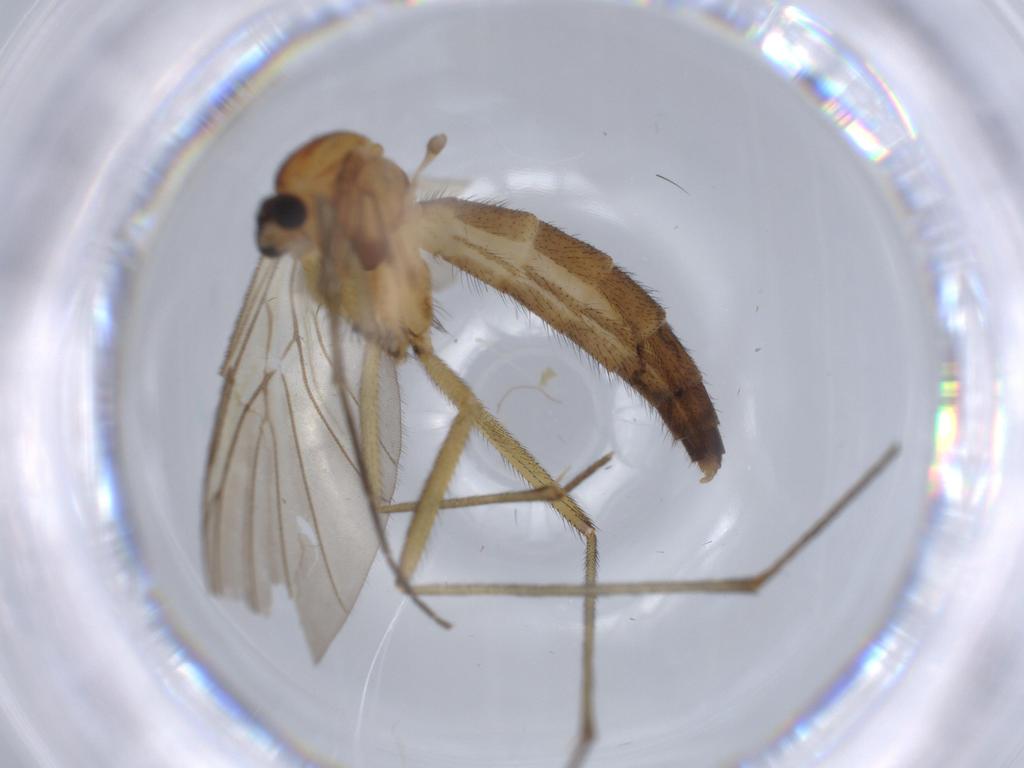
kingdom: Animalia
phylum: Arthropoda
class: Insecta
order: Diptera
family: Keroplatidae
